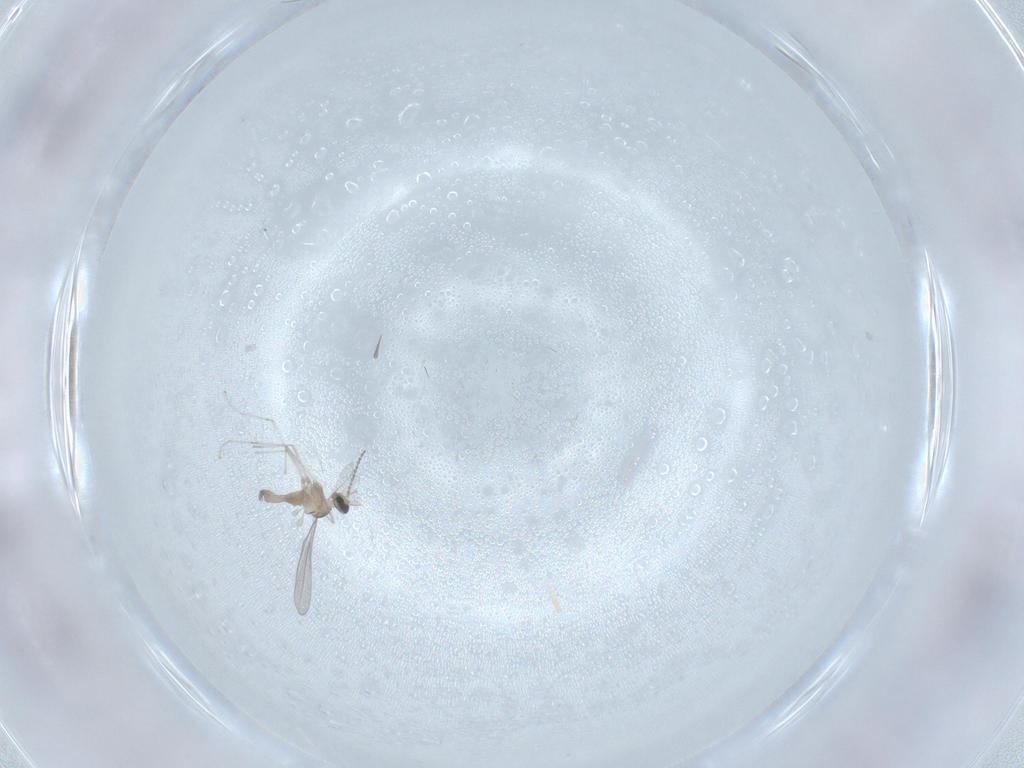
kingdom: Animalia
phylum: Arthropoda
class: Insecta
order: Diptera
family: Cecidomyiidae
